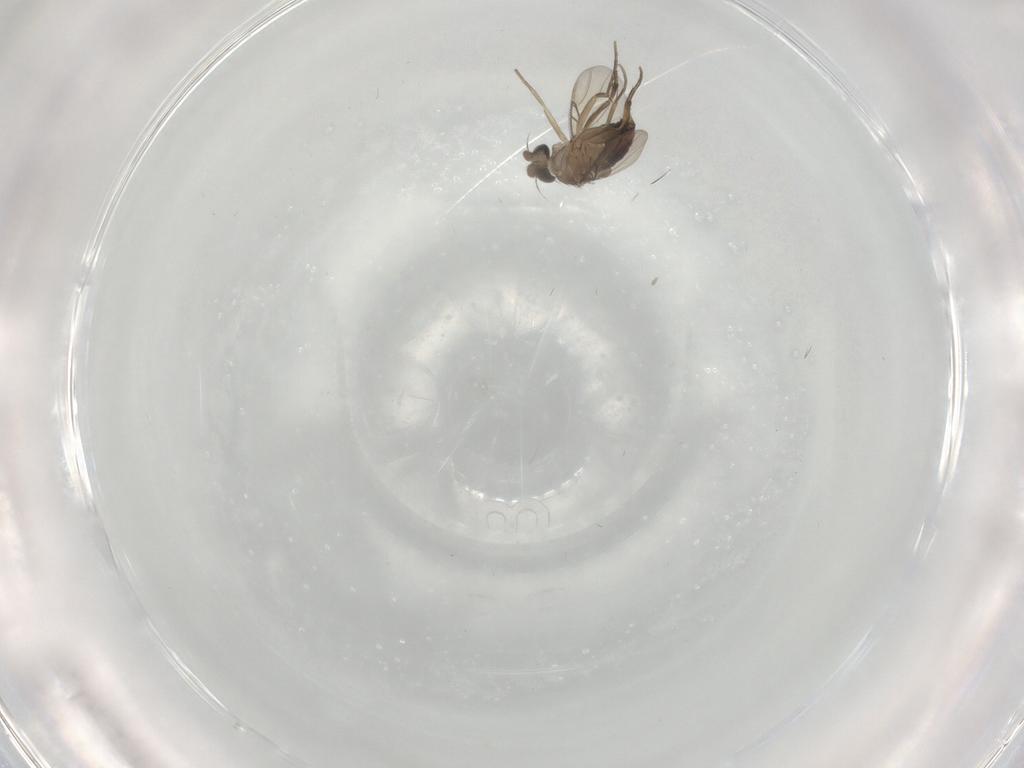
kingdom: Animalia
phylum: Arthropoda
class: Insecta
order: Diptera
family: Phoridae
